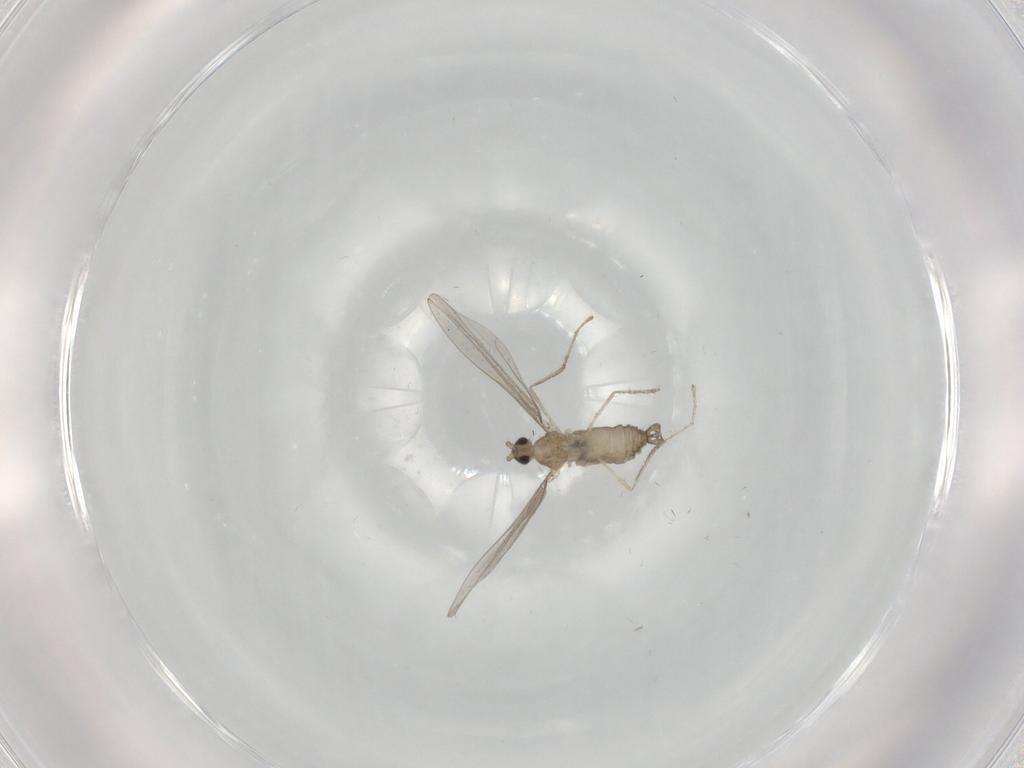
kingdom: Animalia
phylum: Arthropoda
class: Insecta
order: Diptera
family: Cecidomyiidae
